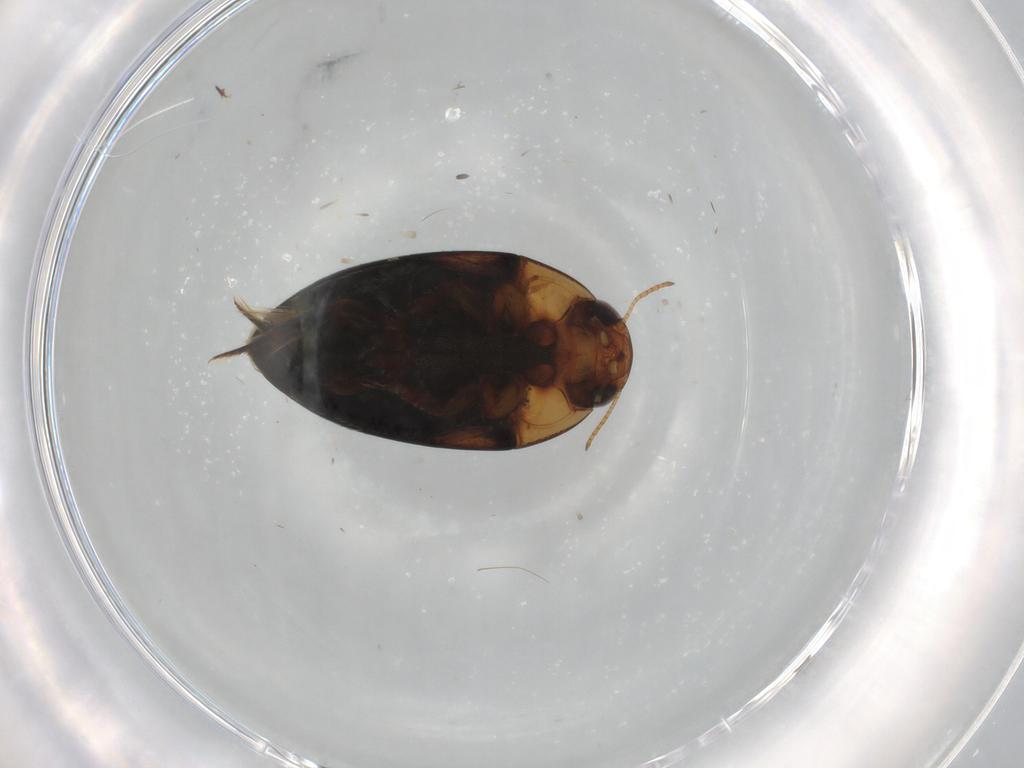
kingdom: Animalia
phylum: Arthropoda
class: Insecta
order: Coleoptera
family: Noteridae
